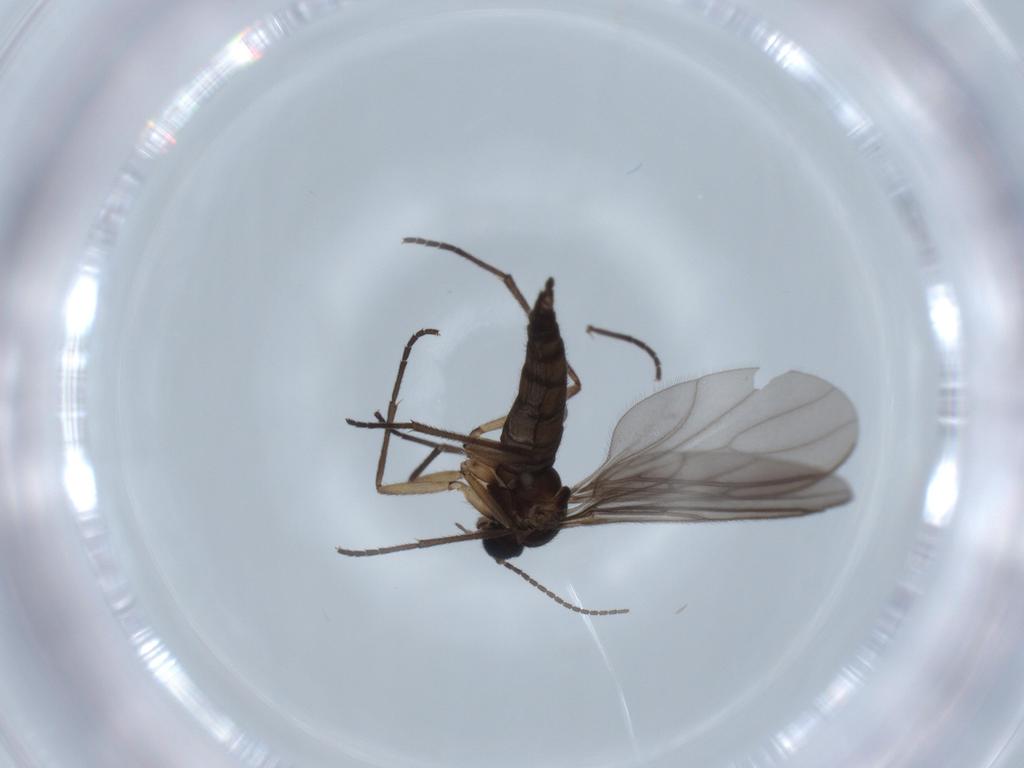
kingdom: Animalia
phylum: Arthropoda
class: Insecta
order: Diptera
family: Sciaridae
